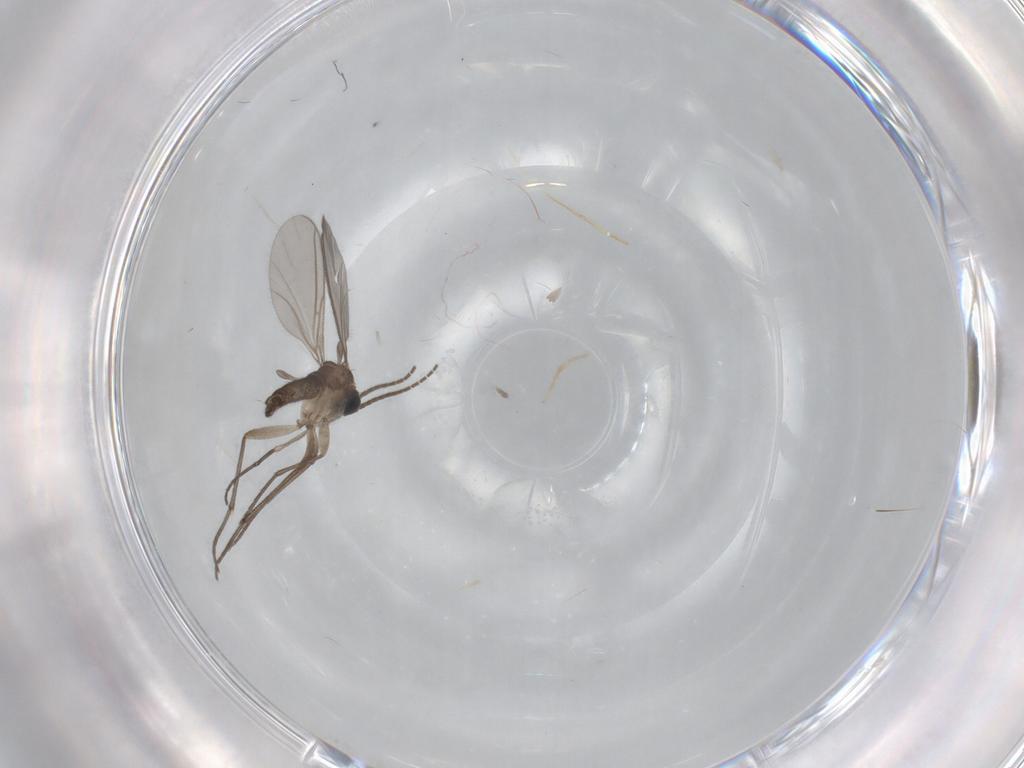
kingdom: Animalia
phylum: Arthropoda
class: Insecta
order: Diptera
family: Sciaridae
